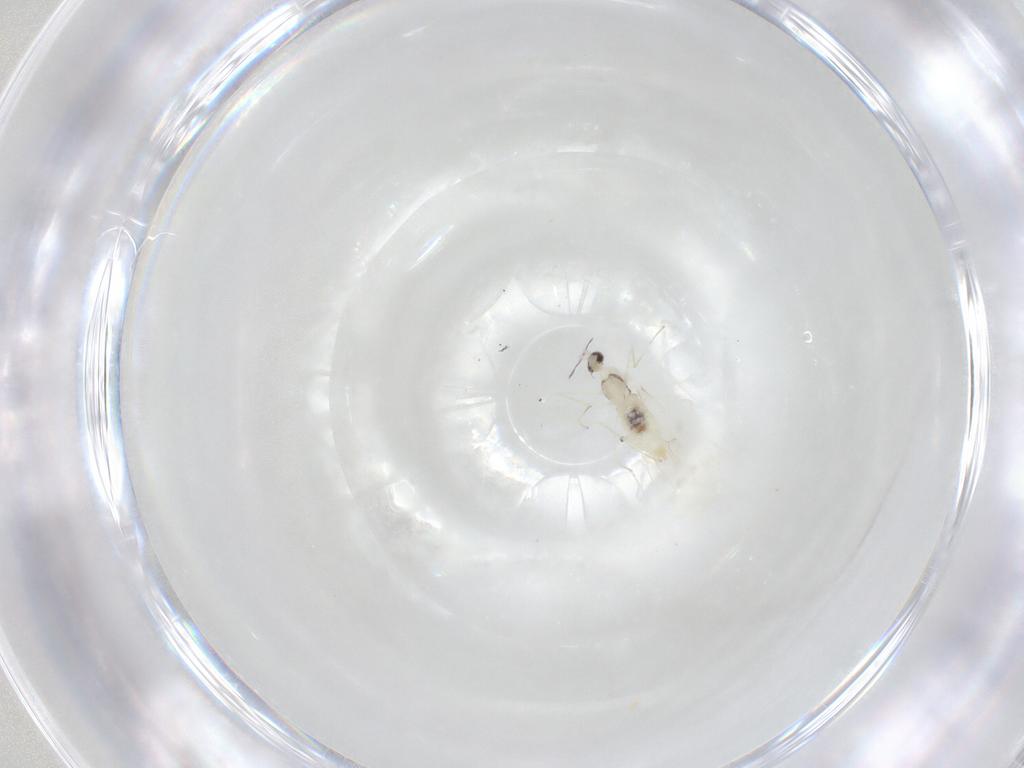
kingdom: Animalia
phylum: Arthropoda
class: Insecta
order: Diptera
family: Cecidomyiidae
